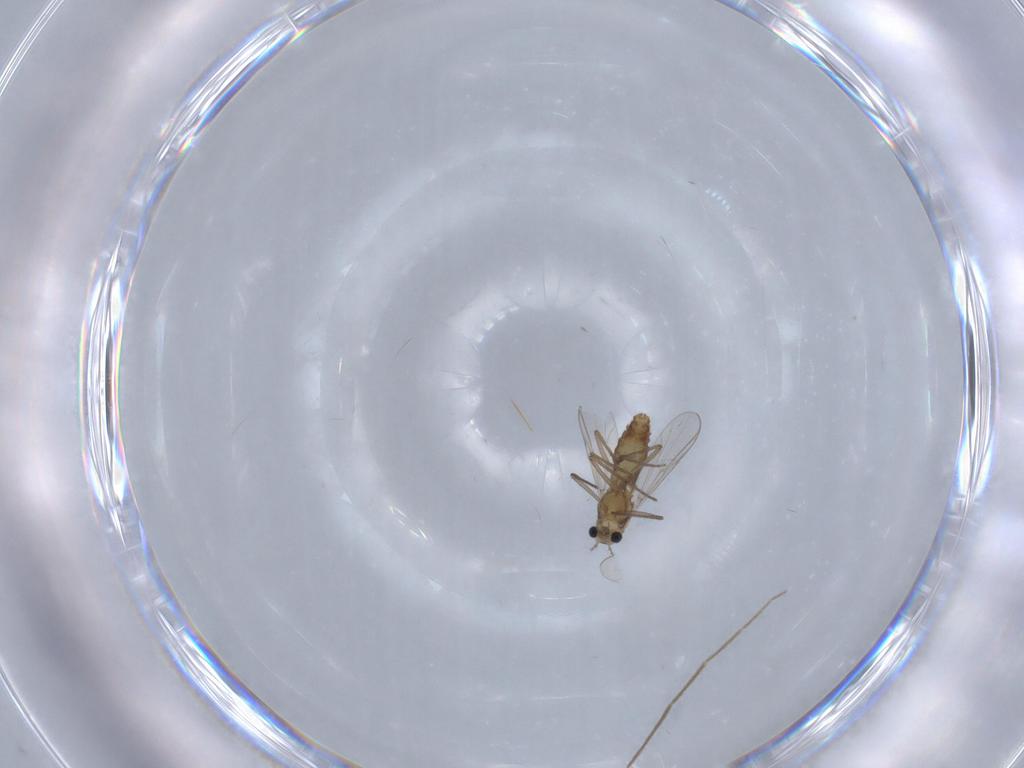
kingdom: Animalia
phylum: Arthropoda
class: Insecta
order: Diptera
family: Chironomidae
